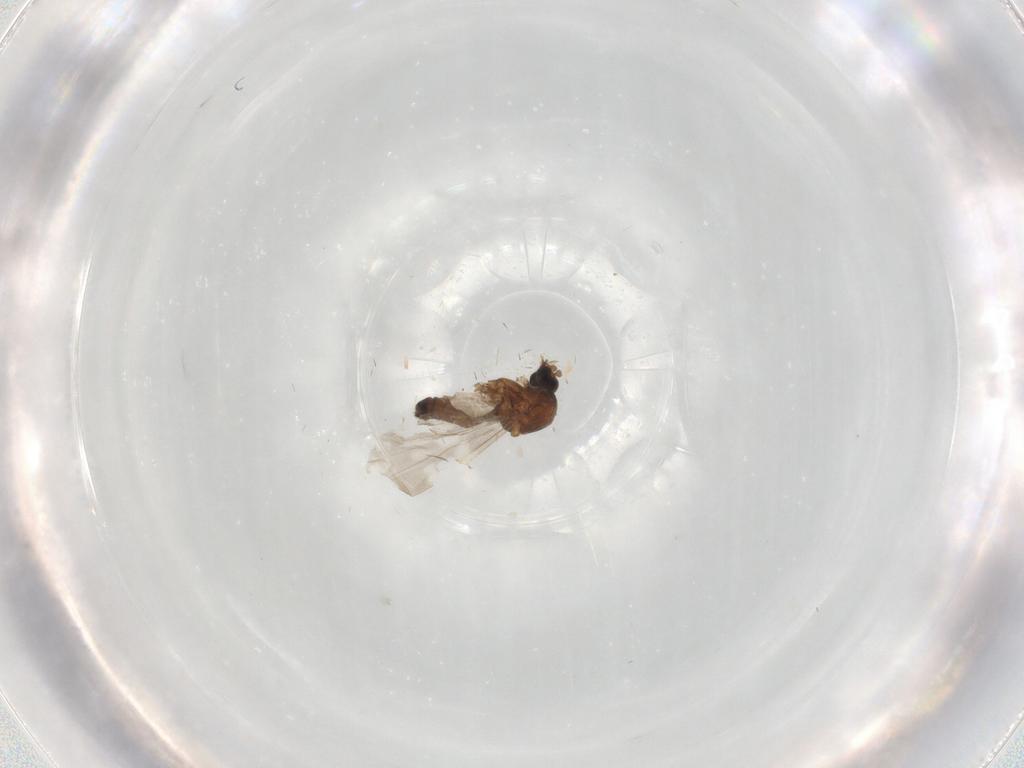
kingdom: Animalia
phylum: Arthropoda
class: Insecta
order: Diptera
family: Ceratopogonidae
